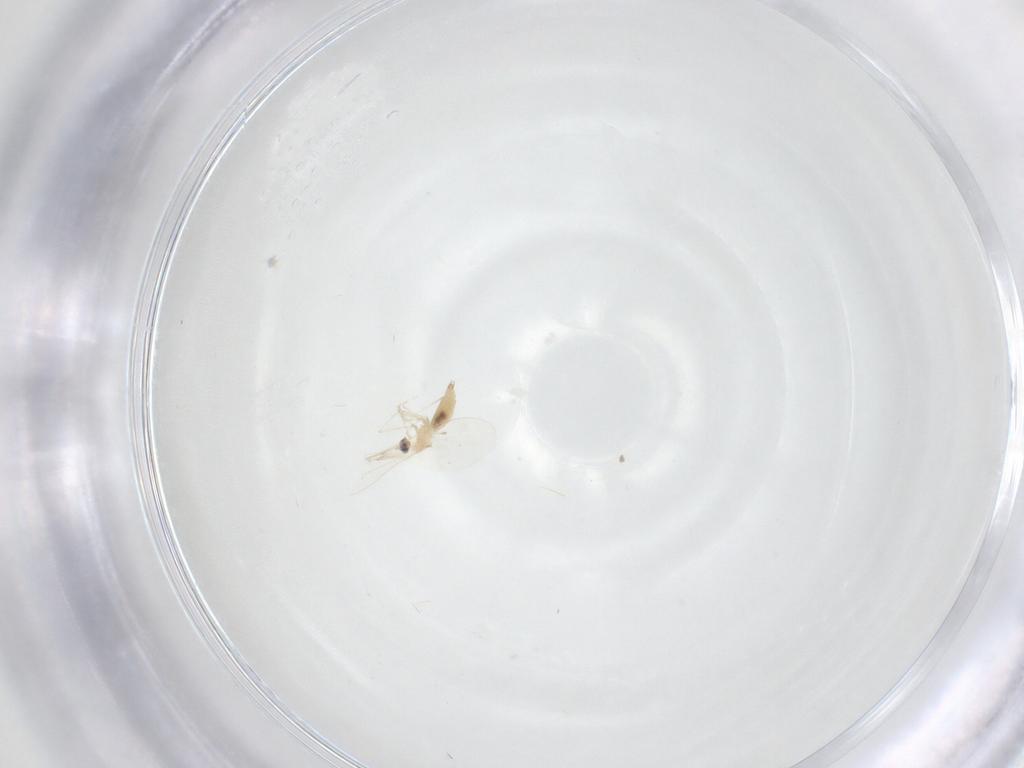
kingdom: Animalia
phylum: Arthropoda
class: Insecta
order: Diptera
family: Cecidomyiidae
